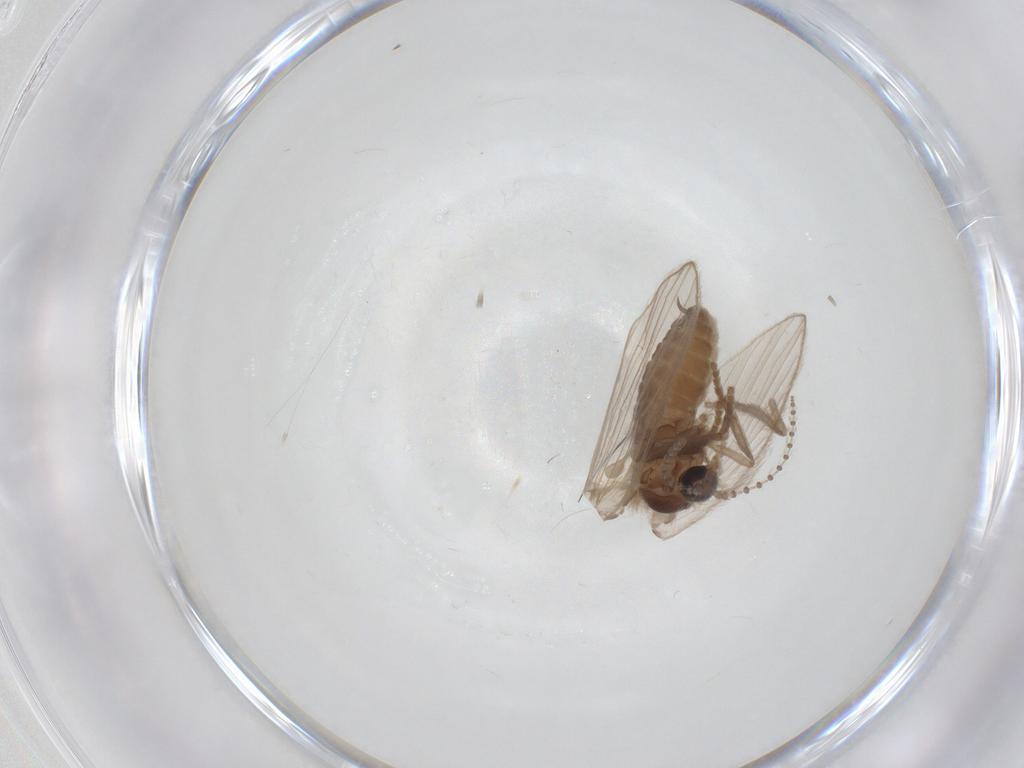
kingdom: Animalia
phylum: Arthropoda
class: Insecta
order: Diptera
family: Psychodidae
